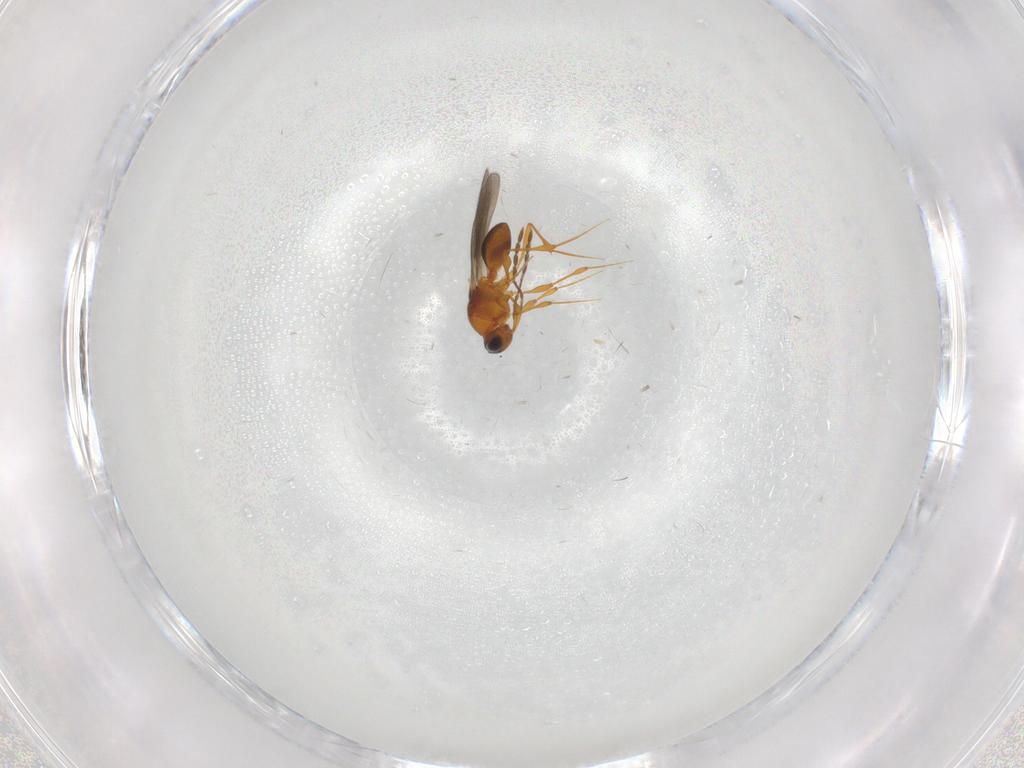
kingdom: Animalia
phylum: Arthropoda
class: Insecta
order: Hymenoptera
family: Platygastridae
